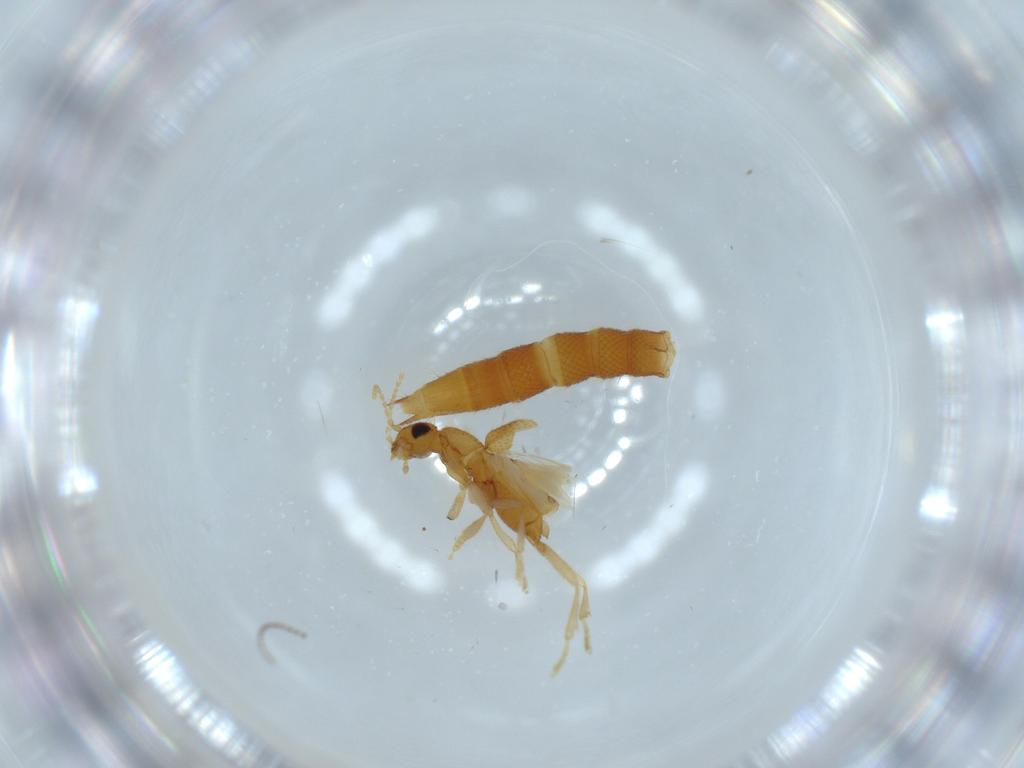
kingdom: Animalia
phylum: Arthropoda
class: Insecta
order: Coleoptera
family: Staphylinidae
